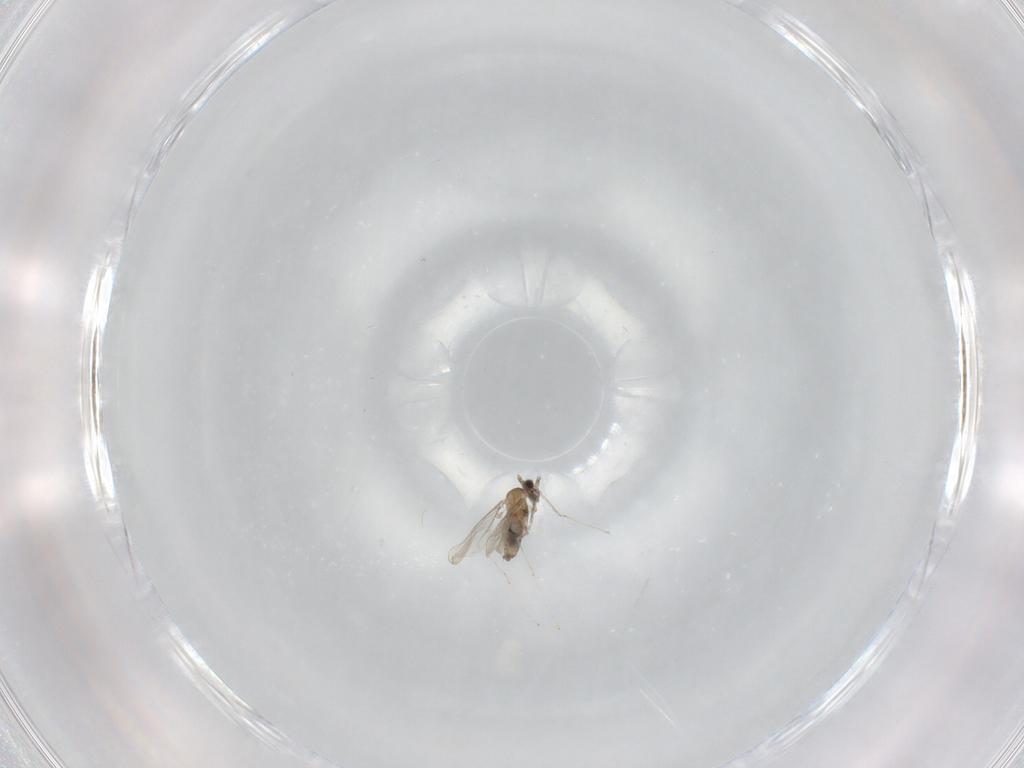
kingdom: Animalia
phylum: Arthropoda
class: Insecta
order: Diptera
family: Cecidomyiidae
